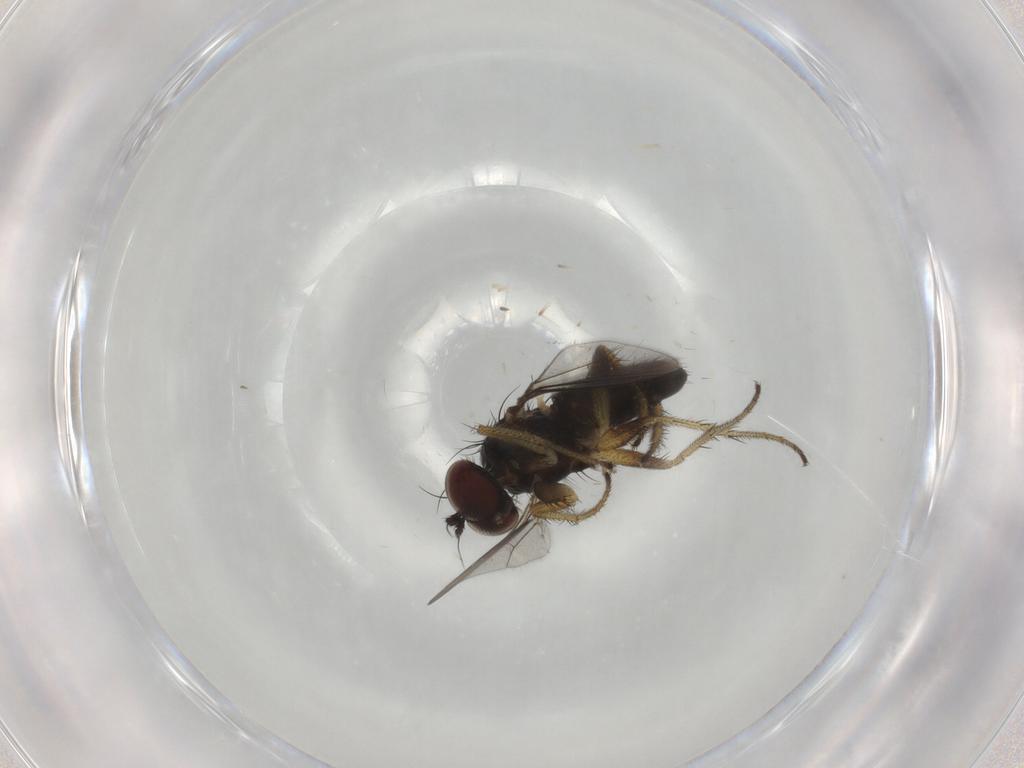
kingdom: Animalia
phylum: Arthropoda
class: Insecta
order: Diptera
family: Dolichopodidae
